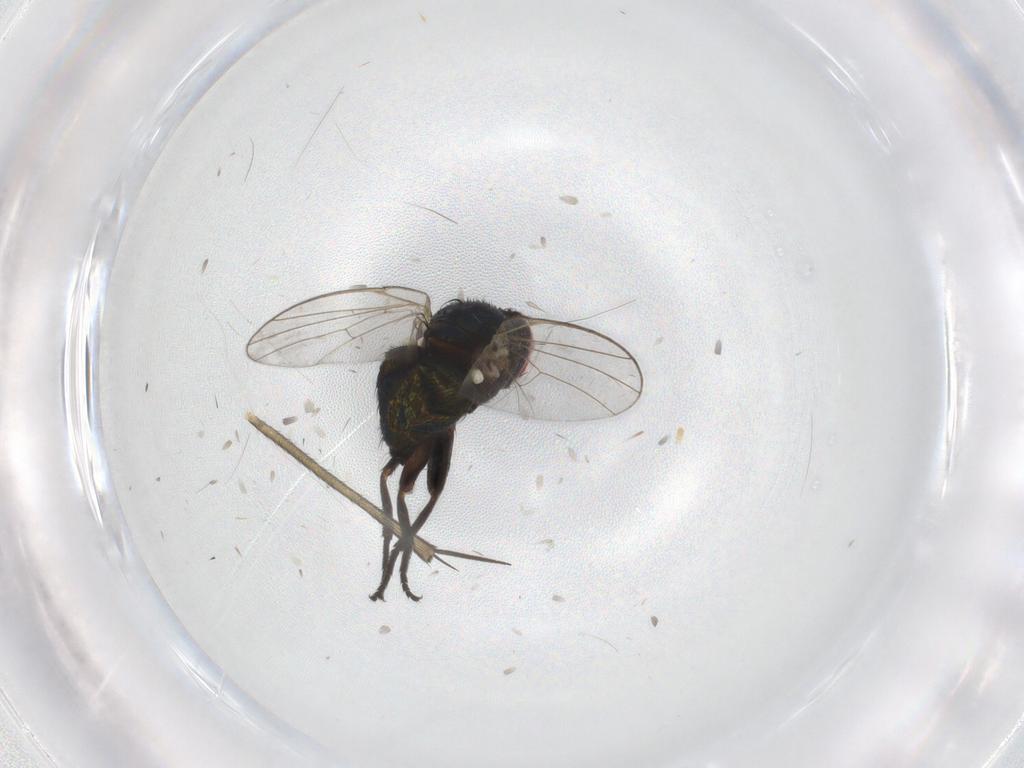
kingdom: Animalia
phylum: Arthropoda
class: Insecta
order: Diptera
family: Agromyzidae
